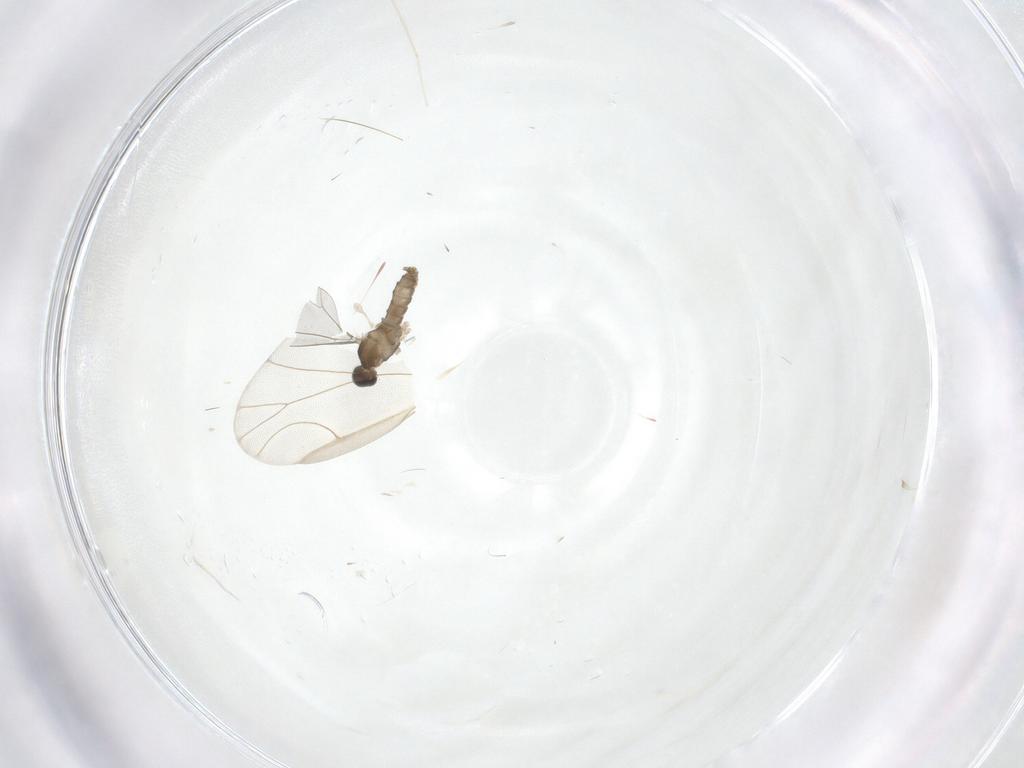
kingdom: Animalia
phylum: Arthropoda
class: Insecta
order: Diptera
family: Cecidomyiidae
